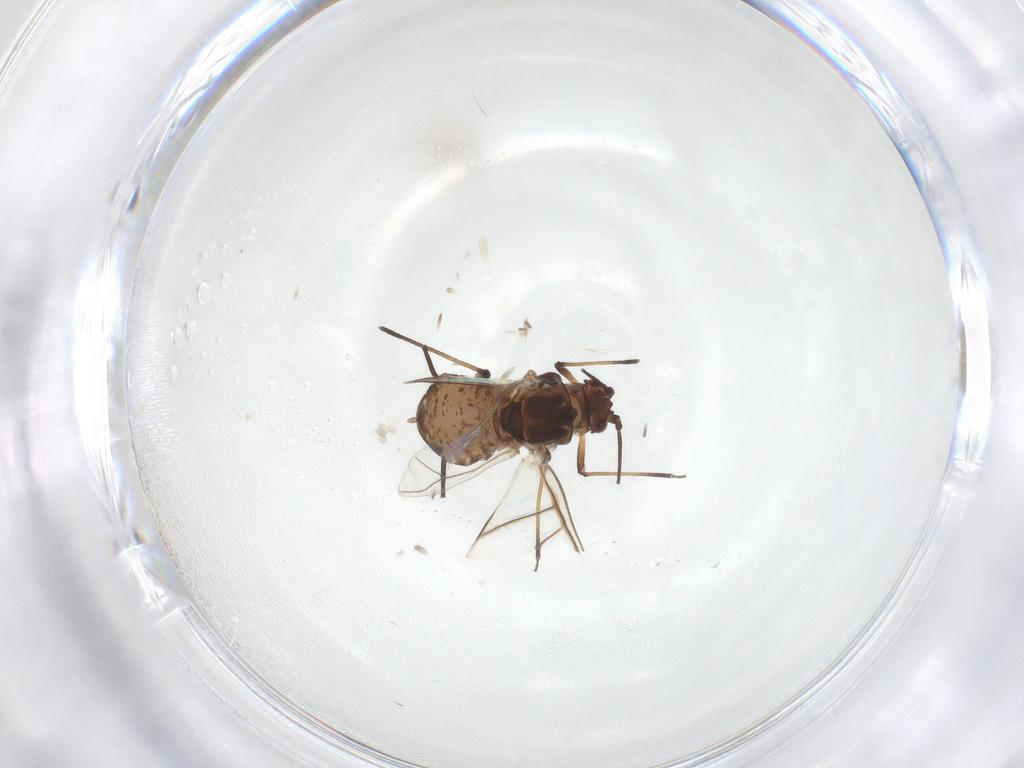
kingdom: Animalia
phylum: Arthropoda
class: Insecta
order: Hemiptera
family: Aphididae
